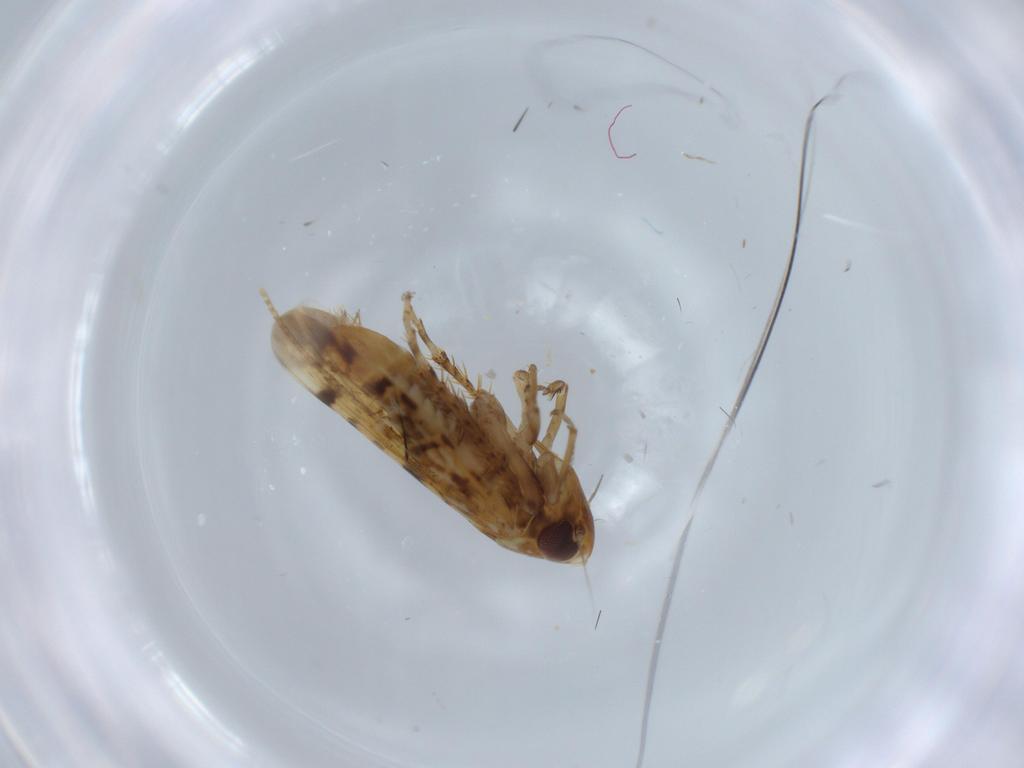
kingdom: Animalia
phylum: Arthropoda
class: Insecta
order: Hemiptera
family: Cicadellidae
